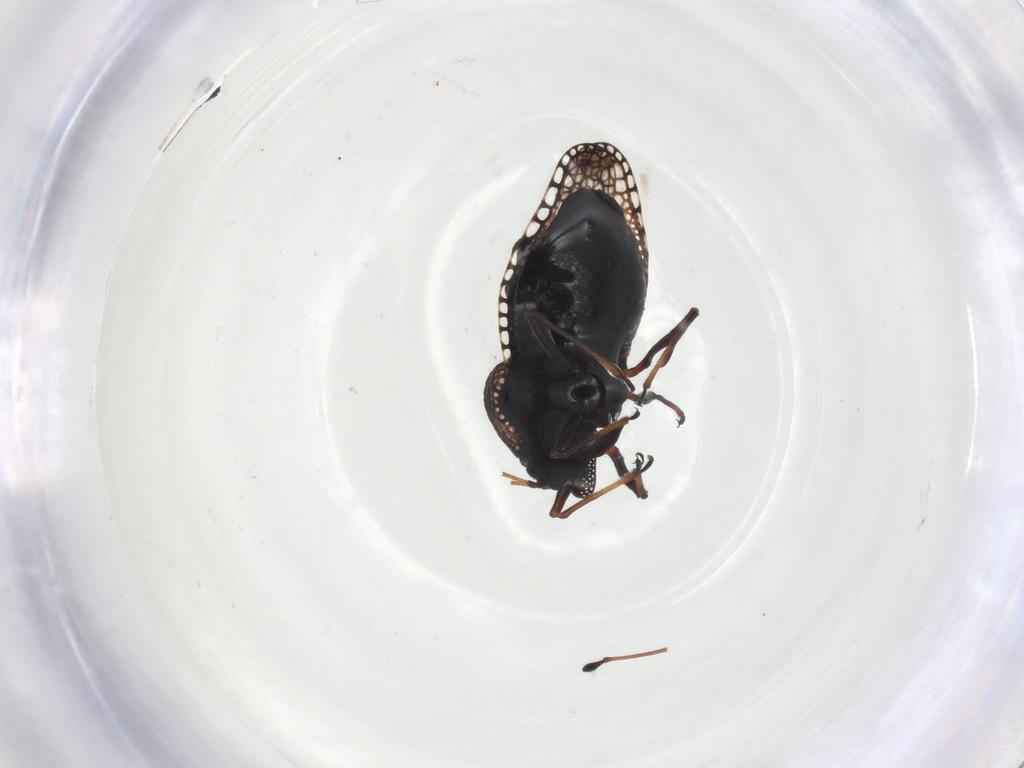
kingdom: Animalia
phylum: Arthropoda
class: Insecta
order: Hemiptera
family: Tingidae
